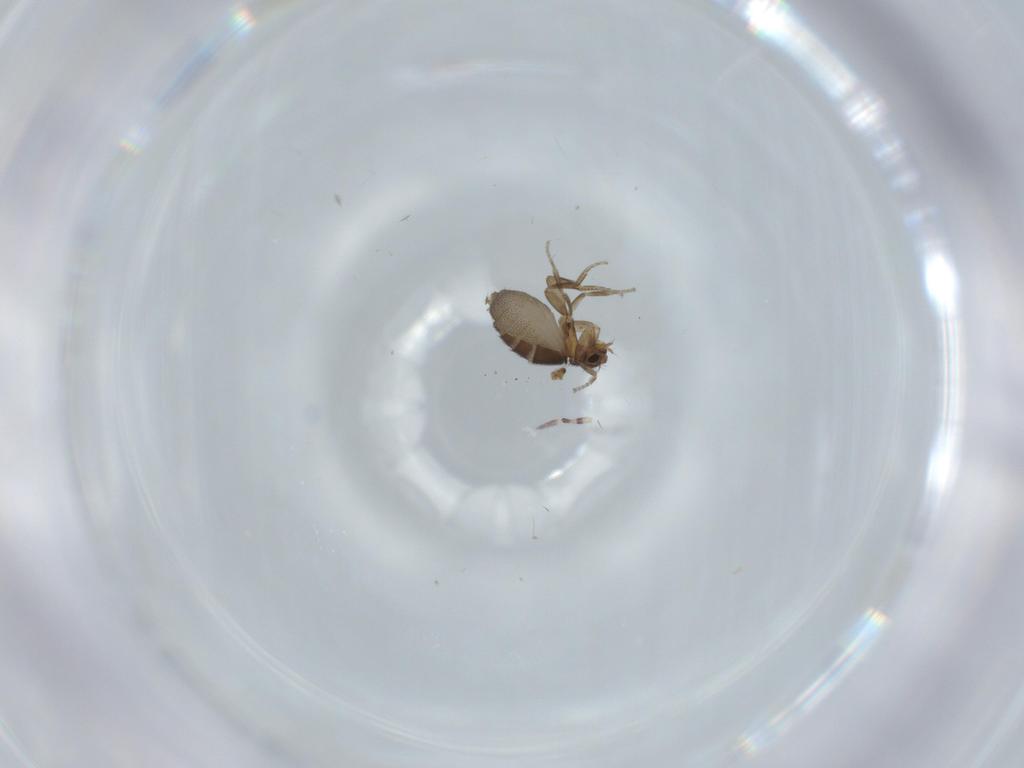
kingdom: Animalia
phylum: Arthropoda
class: Insecta
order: Diptera
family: Phoridae
